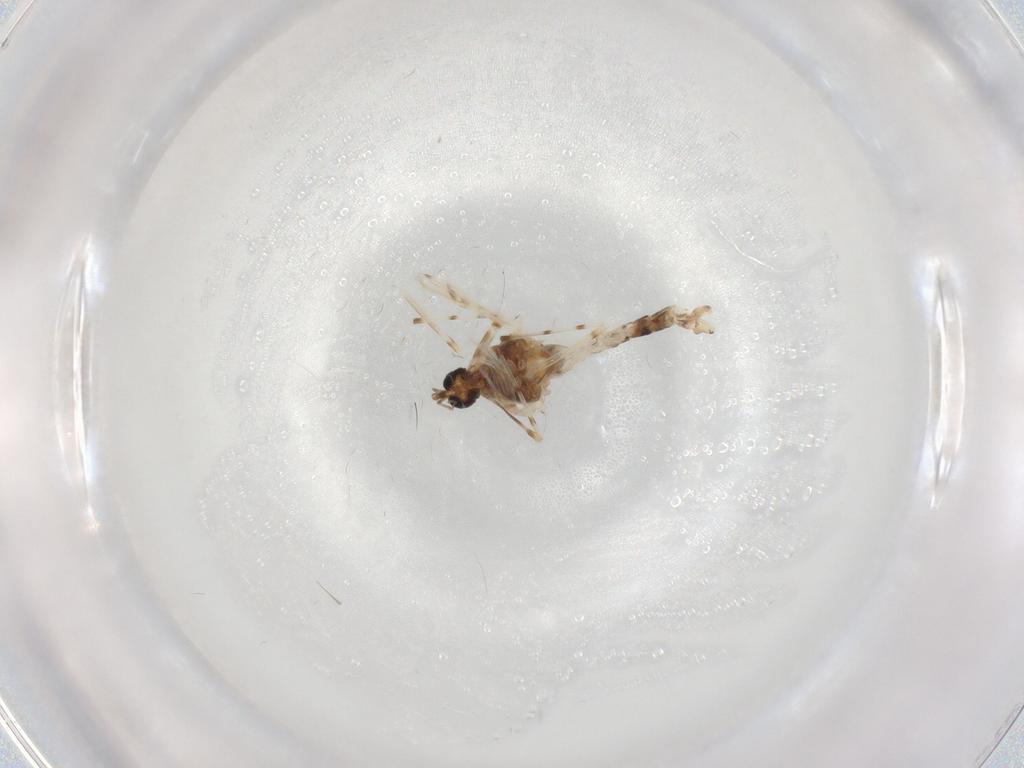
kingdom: Animalia
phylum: Arthropoda
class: Insecta
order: Diptera
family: Chironomidae
